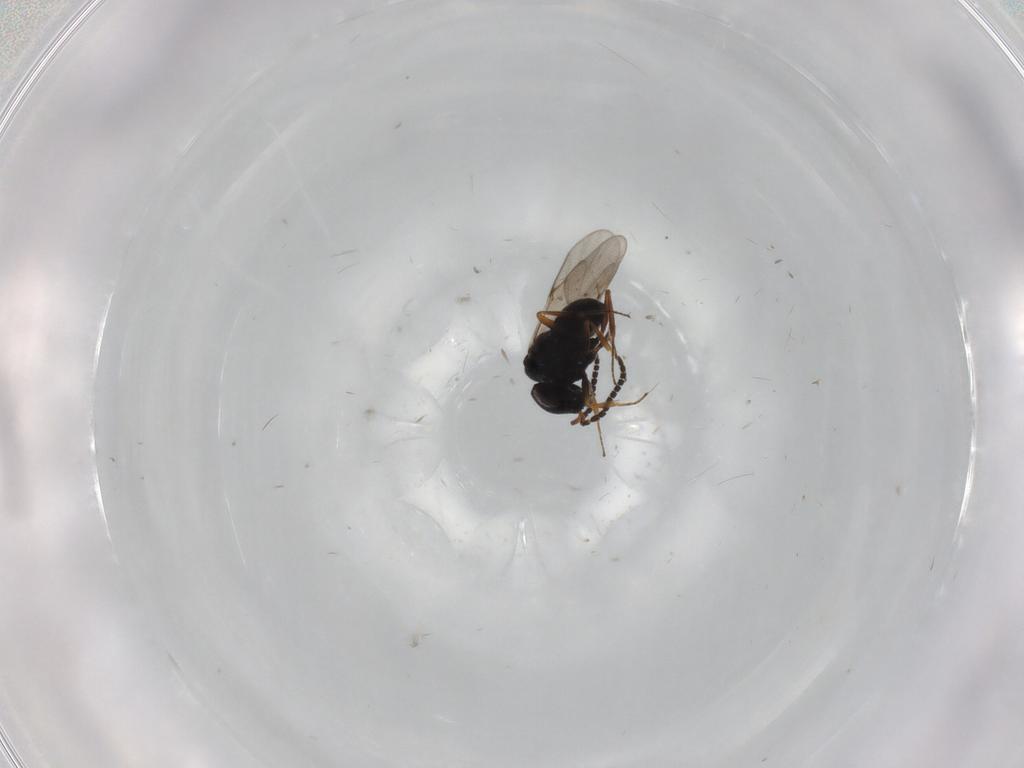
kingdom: Animalia
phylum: Arthropoda
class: Insecta
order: Hymenoptera
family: Scelionidae
